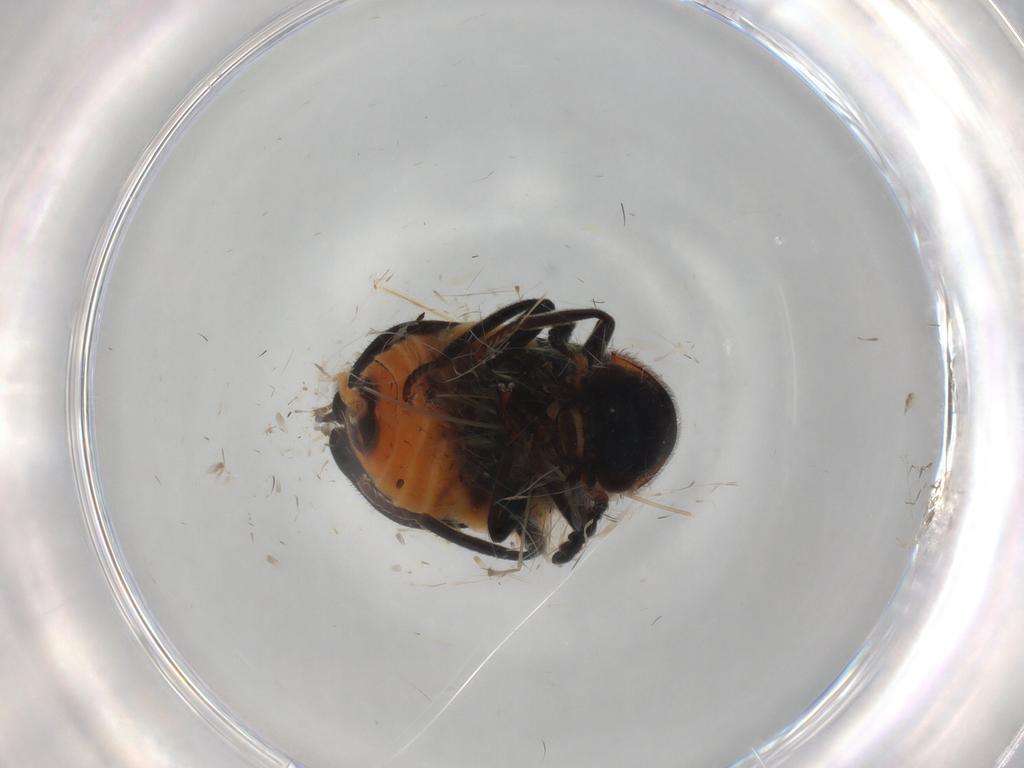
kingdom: Animalia
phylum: Arthropoda
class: Insecta
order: Coleoptera
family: Melyridae
